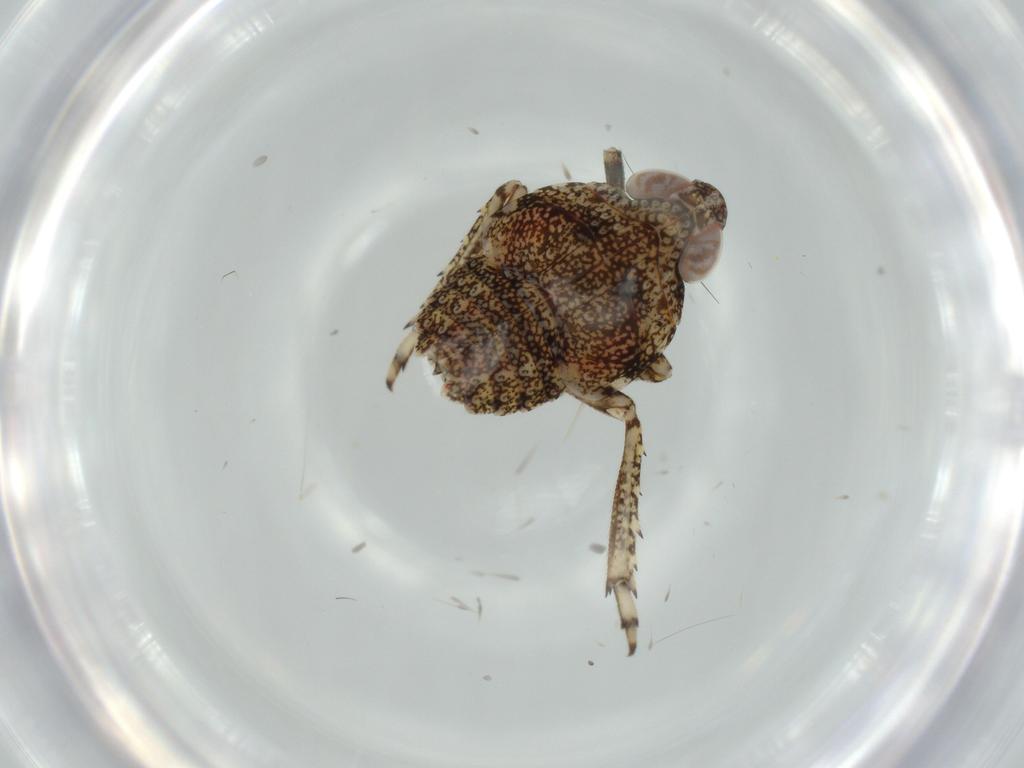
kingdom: Animalia
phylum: Arthropoda
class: Insecta
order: Hemiptera
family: Issidae
